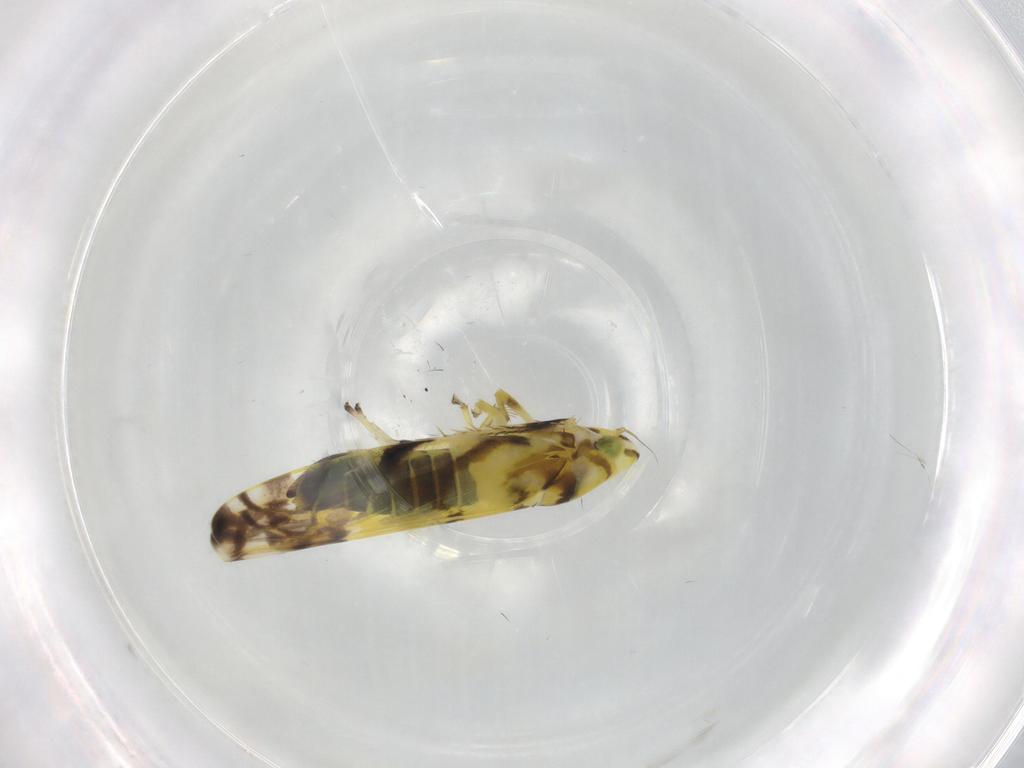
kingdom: Animalia
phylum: Arthropoda
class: Insecta
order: Hemiptera
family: Cicadellidae
